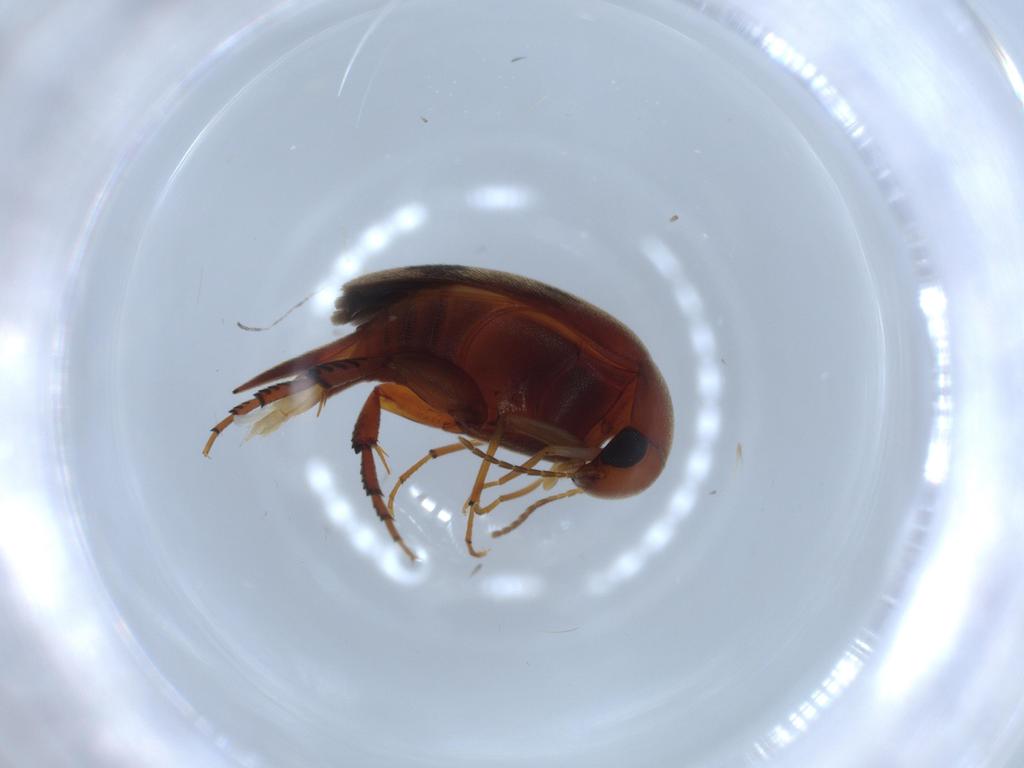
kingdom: Animalia
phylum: Arthropoda
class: Insecta
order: Coleoptera
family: Chrysomelidae
